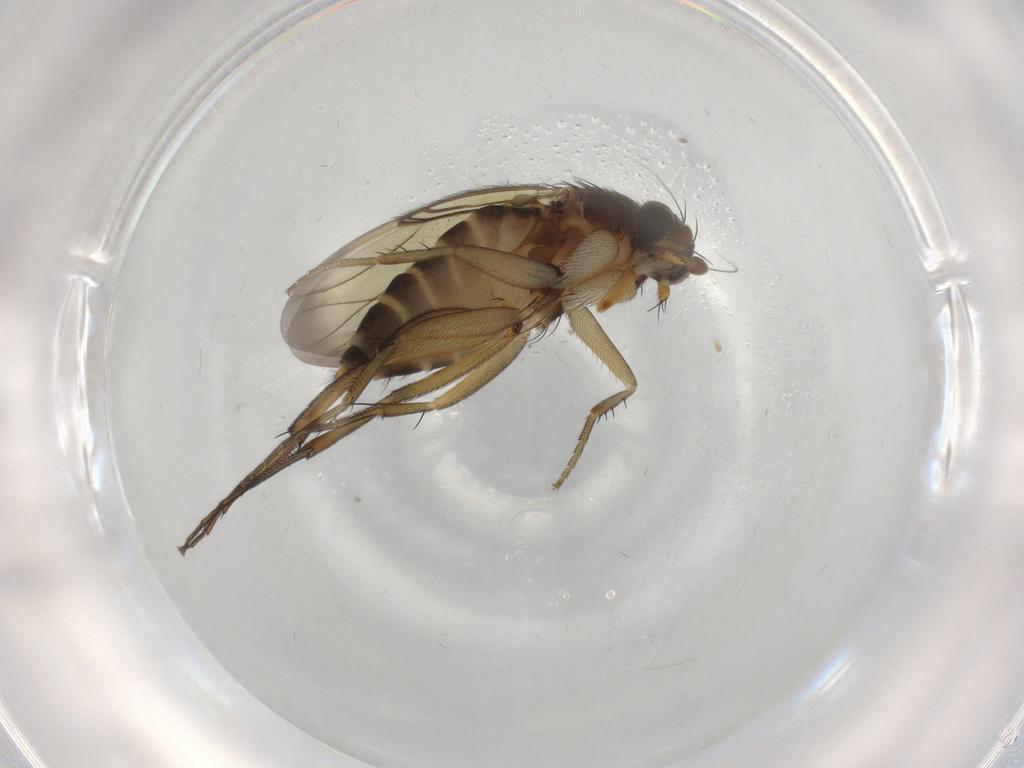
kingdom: Animalia
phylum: Arthropoda
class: Insecta
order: Diptera
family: Phoridae
